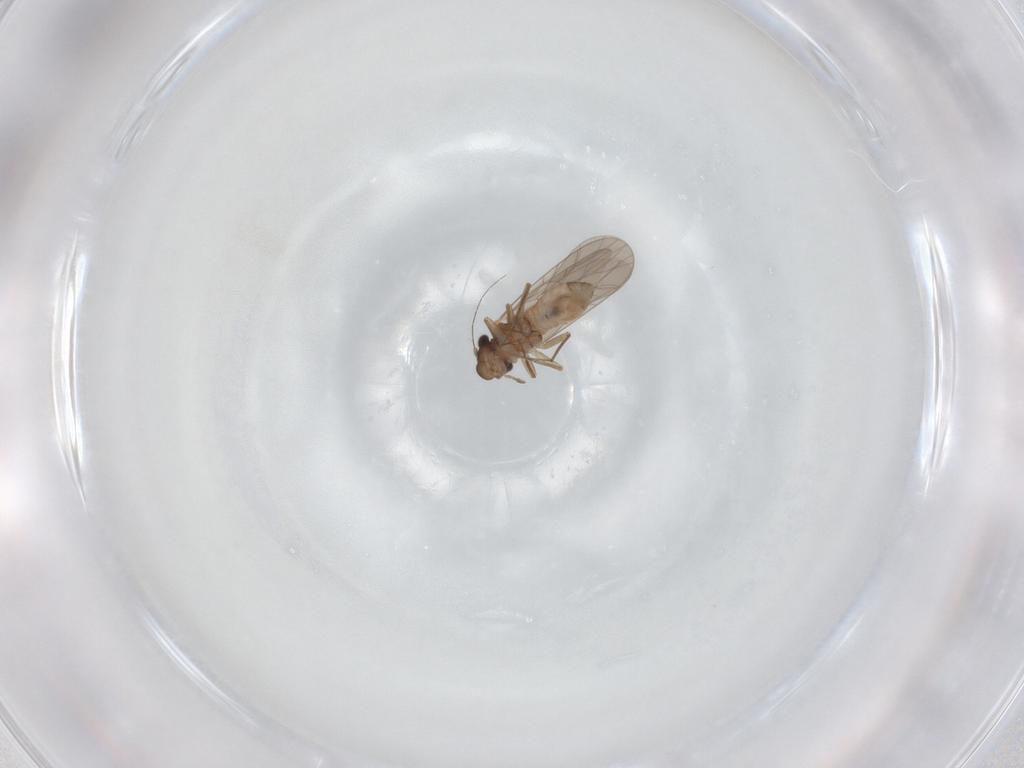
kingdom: Animalia
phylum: Arthropoda
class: Insecta
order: Psocodea
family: Lepidopsocidae
